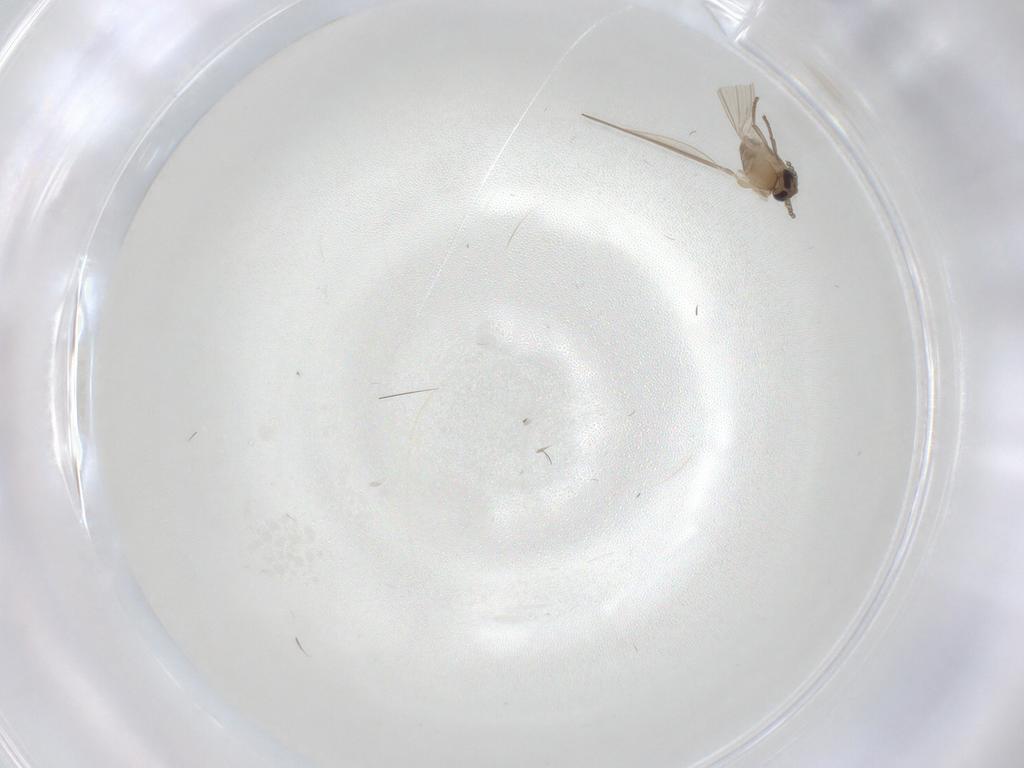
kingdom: Animalia
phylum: Arthropoda
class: Insecta
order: Diptera
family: Psychodidae
